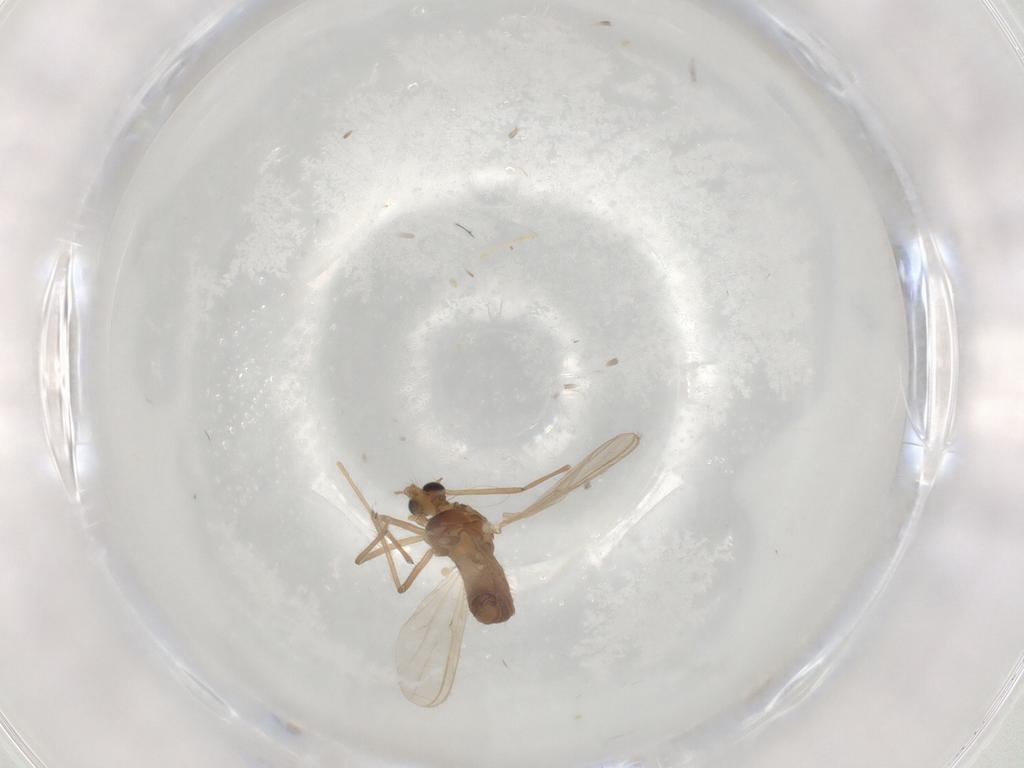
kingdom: Animalia
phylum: Arthropoda
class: Insecta
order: Diptera
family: Chironomidae
